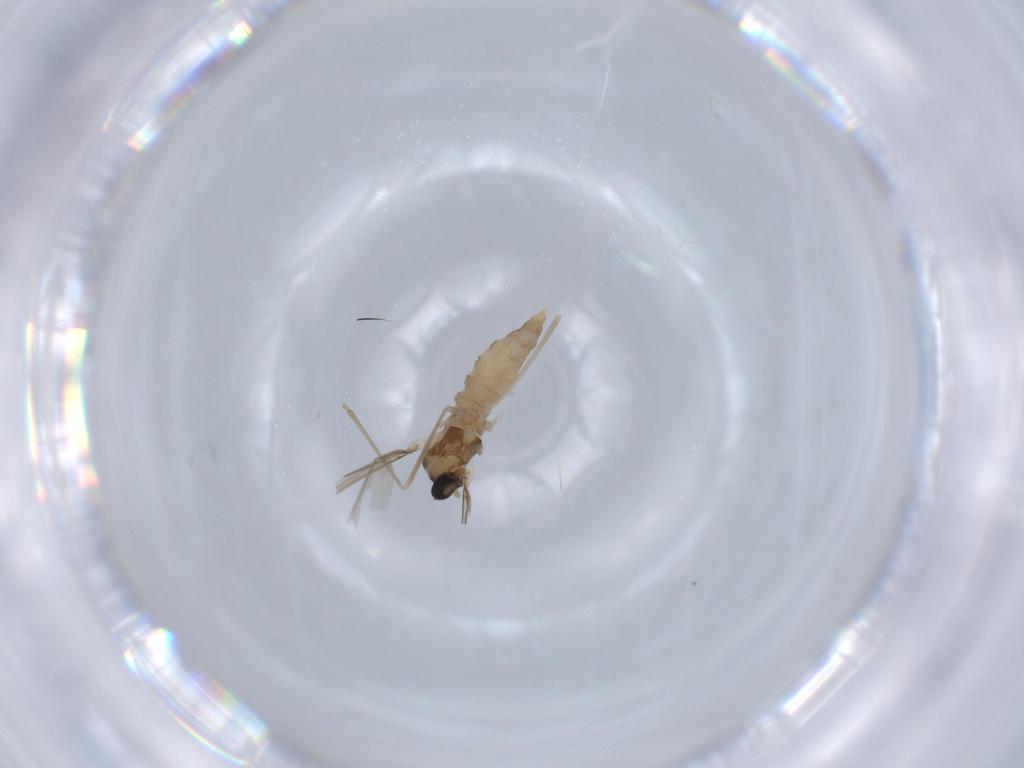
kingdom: Animalia
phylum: Arthropoda
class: Insecta
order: Diptera
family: Cecidomyiidae
